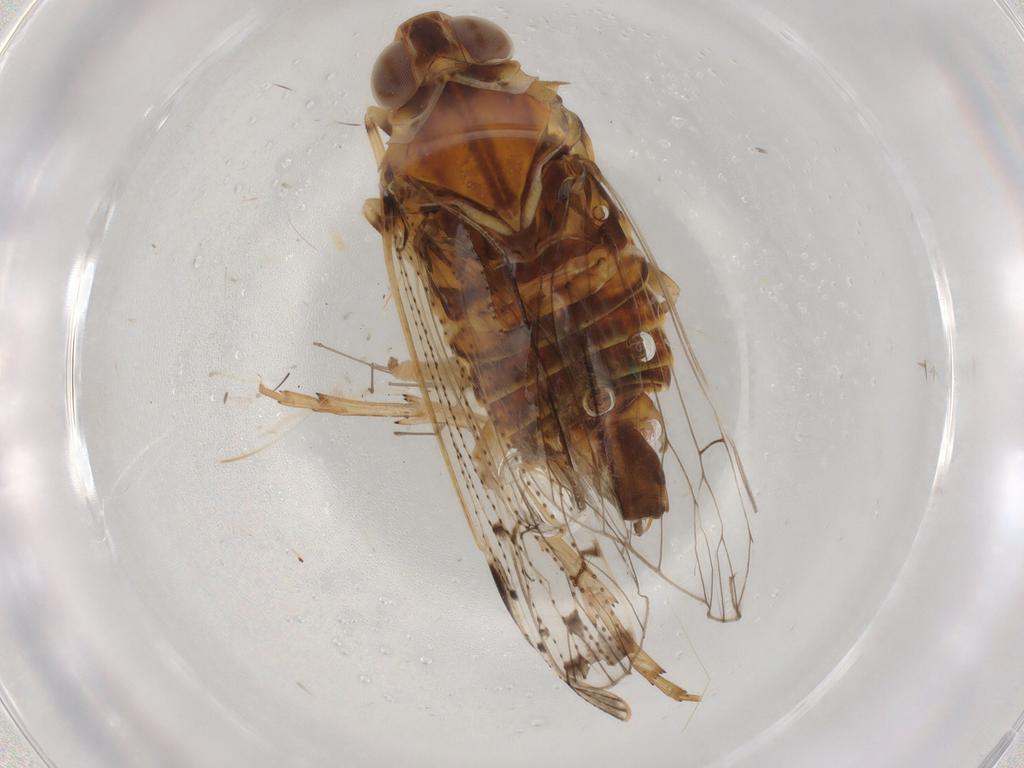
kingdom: Animalia
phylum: Arthropoda
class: Insecta
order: Hemiptera
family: Cixiidae
